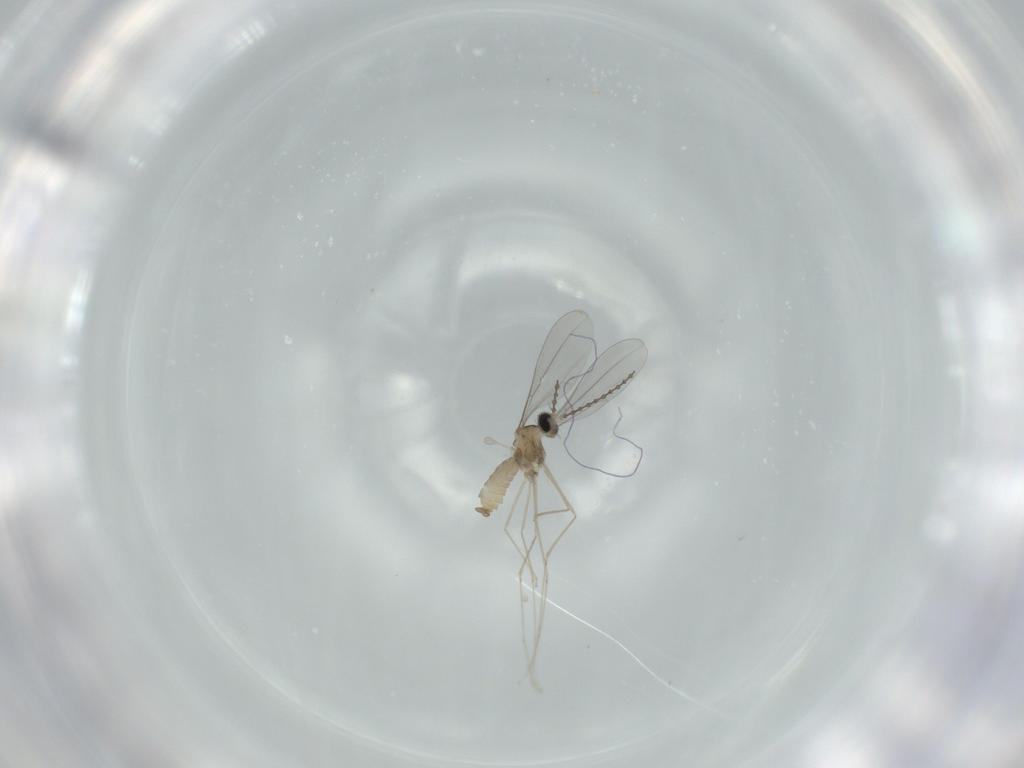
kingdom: Animalia
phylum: Arthropoda
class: Insecta
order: Diptera
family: Cecidomyiidae
